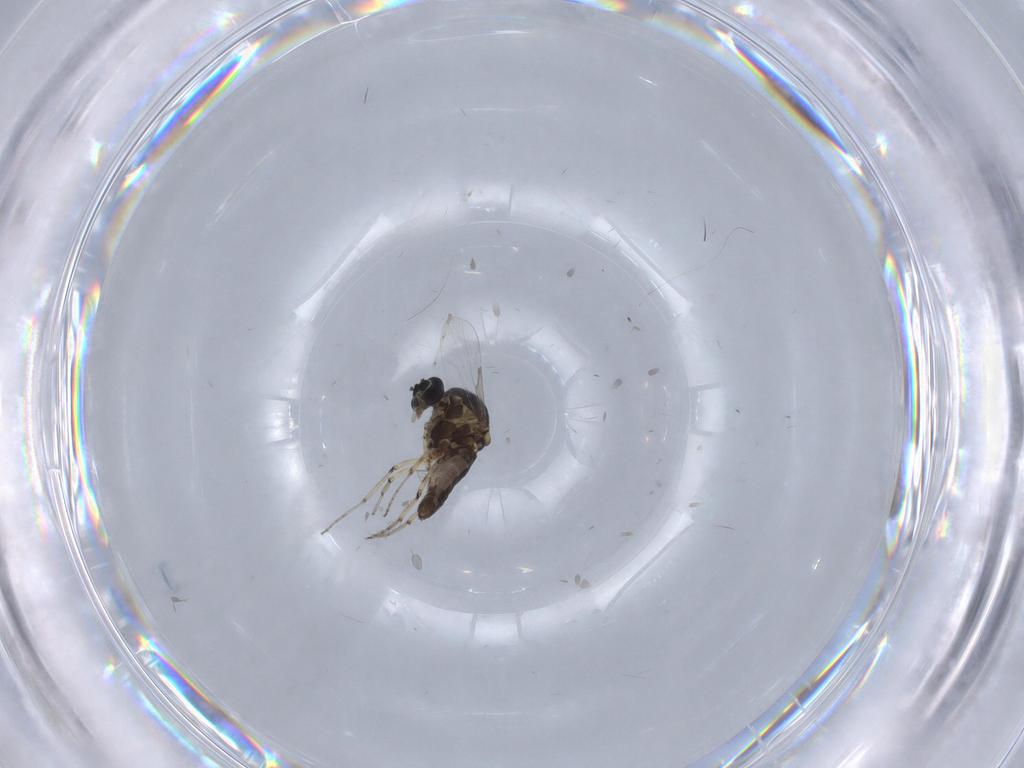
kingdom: Animalia
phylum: Arthropoda
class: Insecta
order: Diptera
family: Cecidomyiidae
